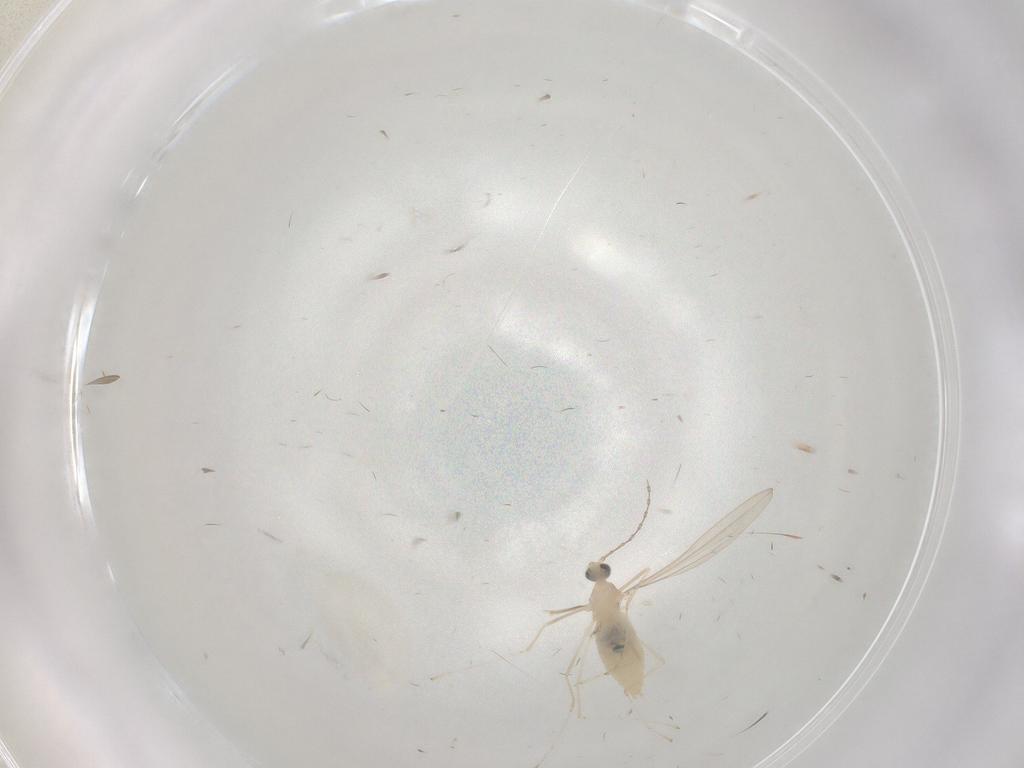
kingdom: Animalia
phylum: Arthropoda
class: Insecta
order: Diptera
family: Cecidomyiidae
